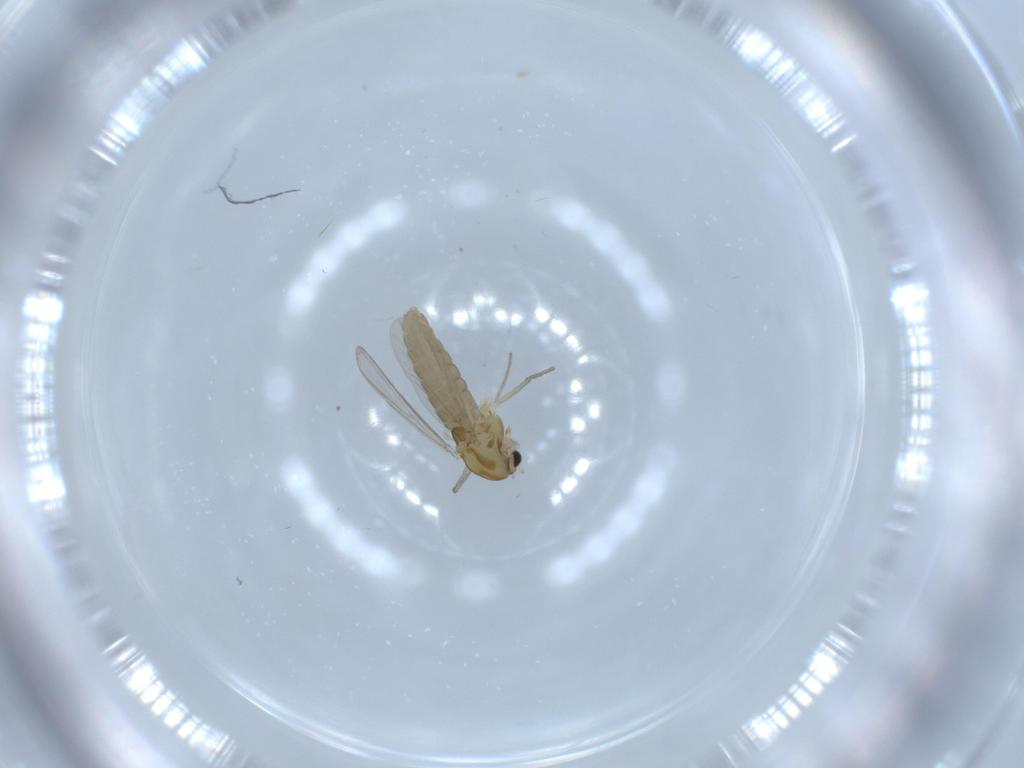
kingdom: Animalia
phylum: Arthropoda
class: Insecta
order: Diptera
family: Chironomidae
